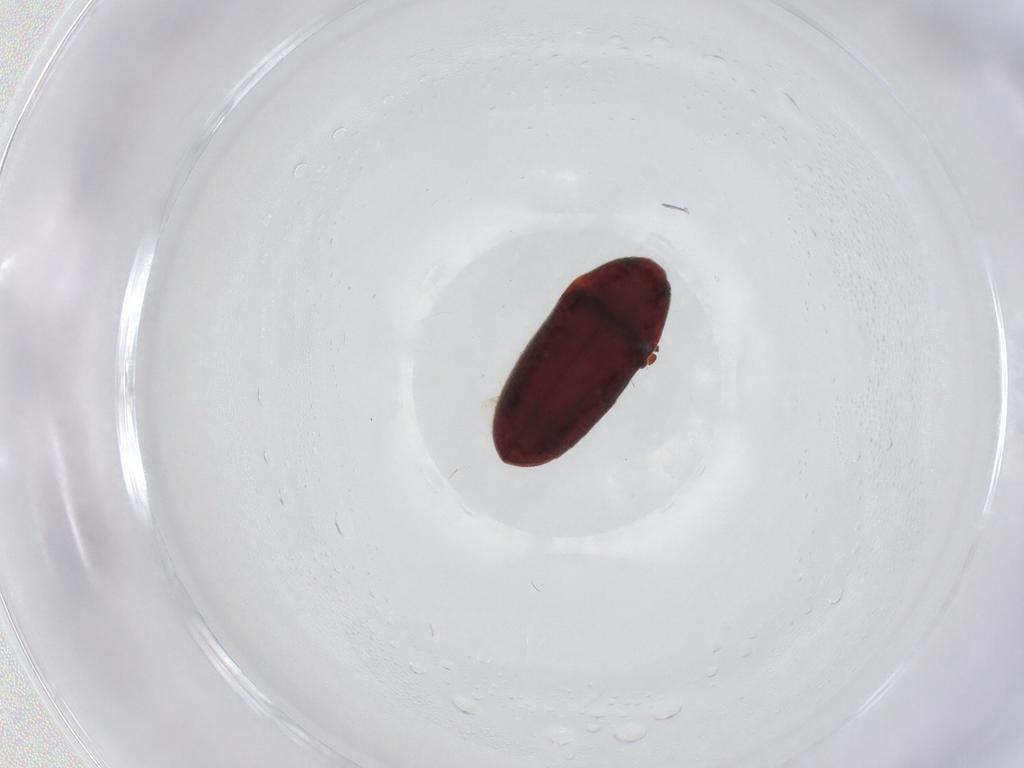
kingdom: Animalia
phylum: Arthropoda
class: Insecta
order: Coleoptera
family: Throscidae
